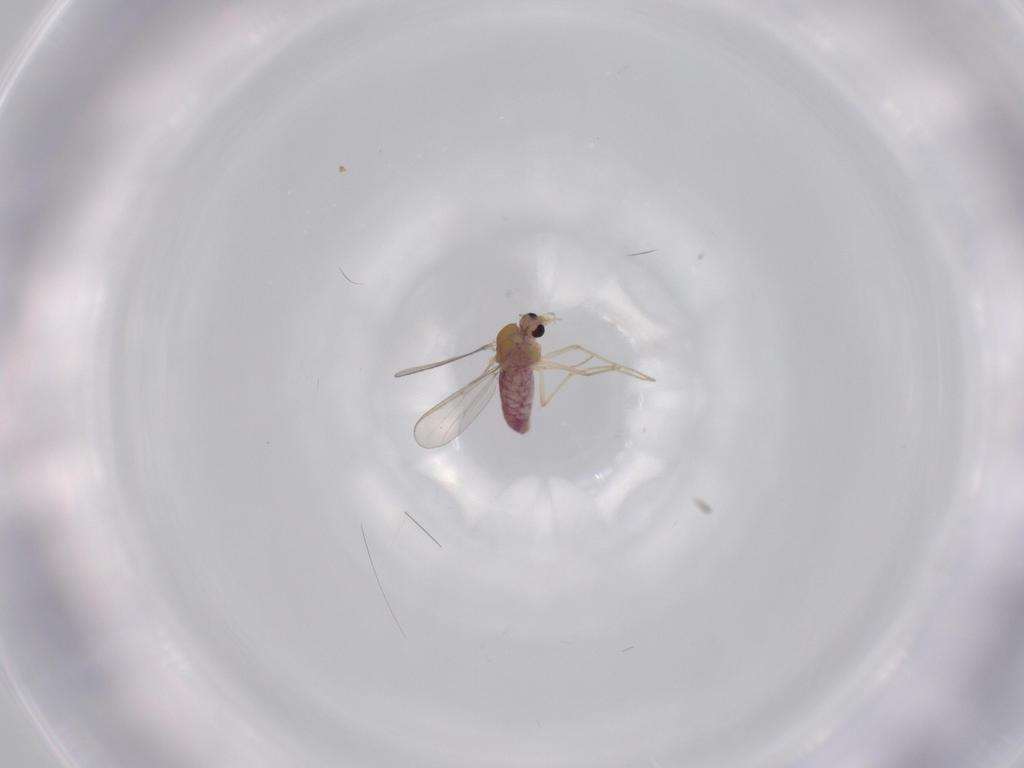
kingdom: Animalia
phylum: Arthropoda
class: Insecta
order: Diptera
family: Chironomidae
